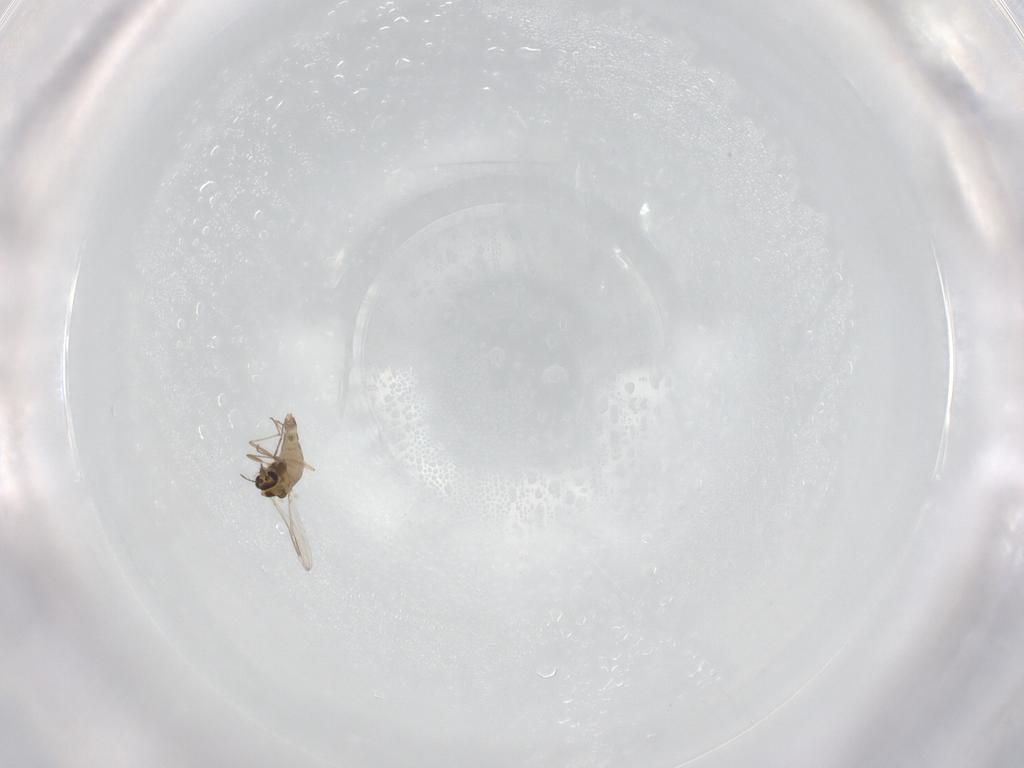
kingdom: Animalia
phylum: Arthropoda
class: Insecta
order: Diptera
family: Chironomidae
